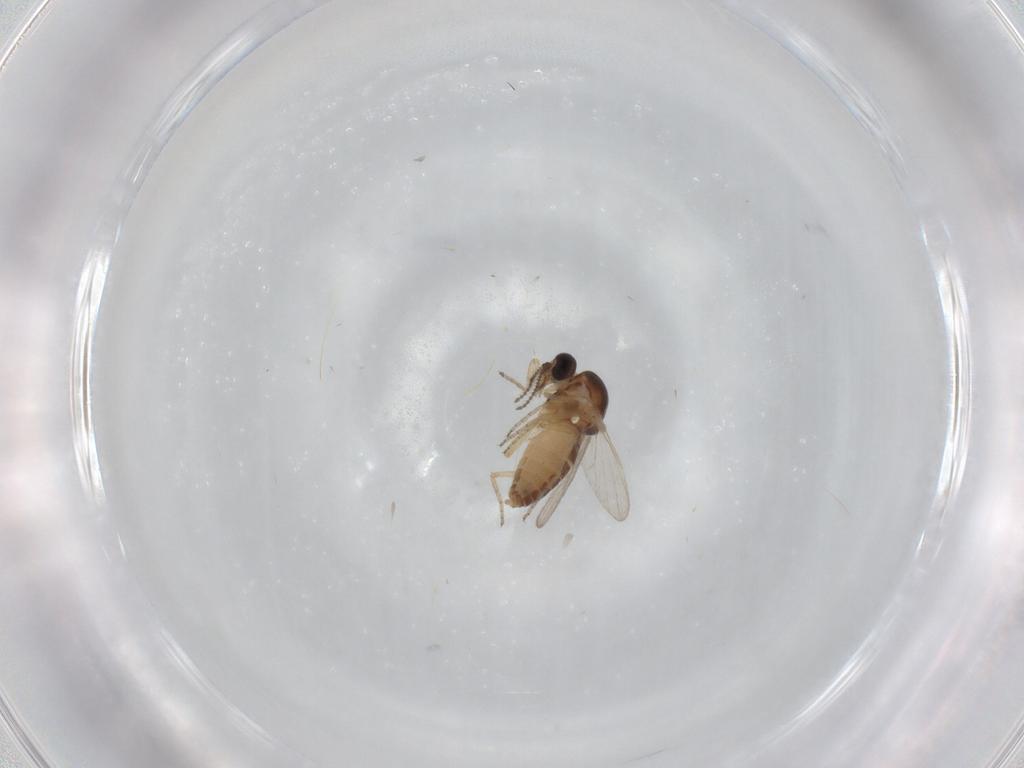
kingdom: Animalia
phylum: Arthropoda
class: Insecta
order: Diptera
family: Ceratopogonidae
